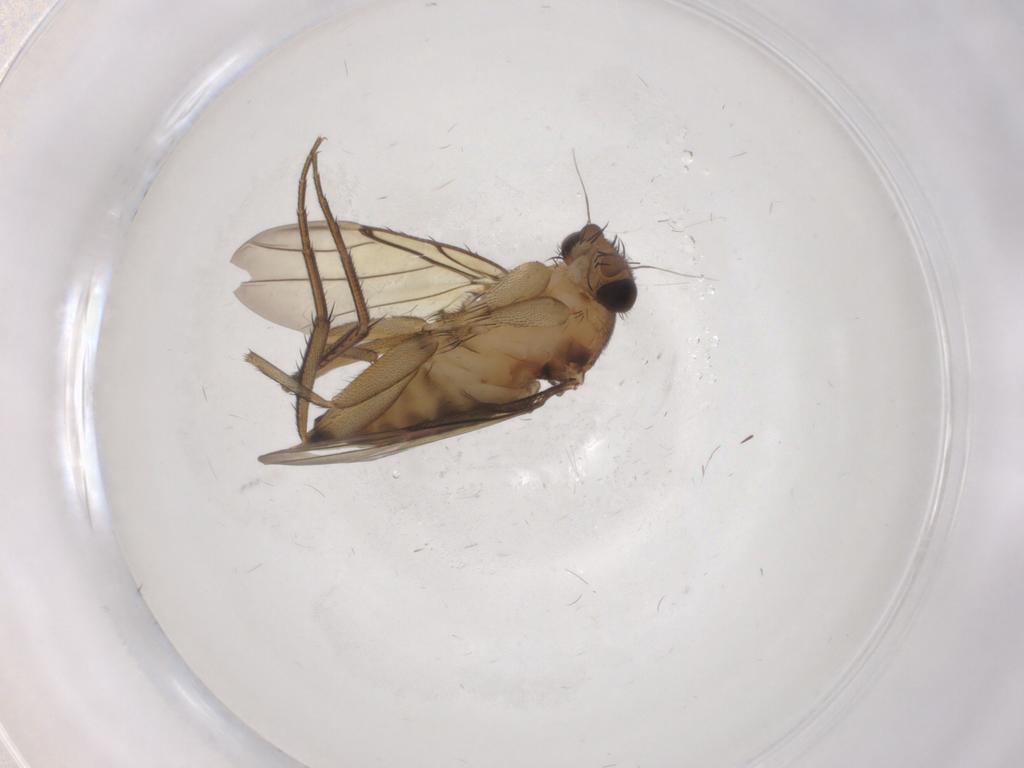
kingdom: Animalia
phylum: Arthropoda
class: Insecta
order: Diptera
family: Phoridae
